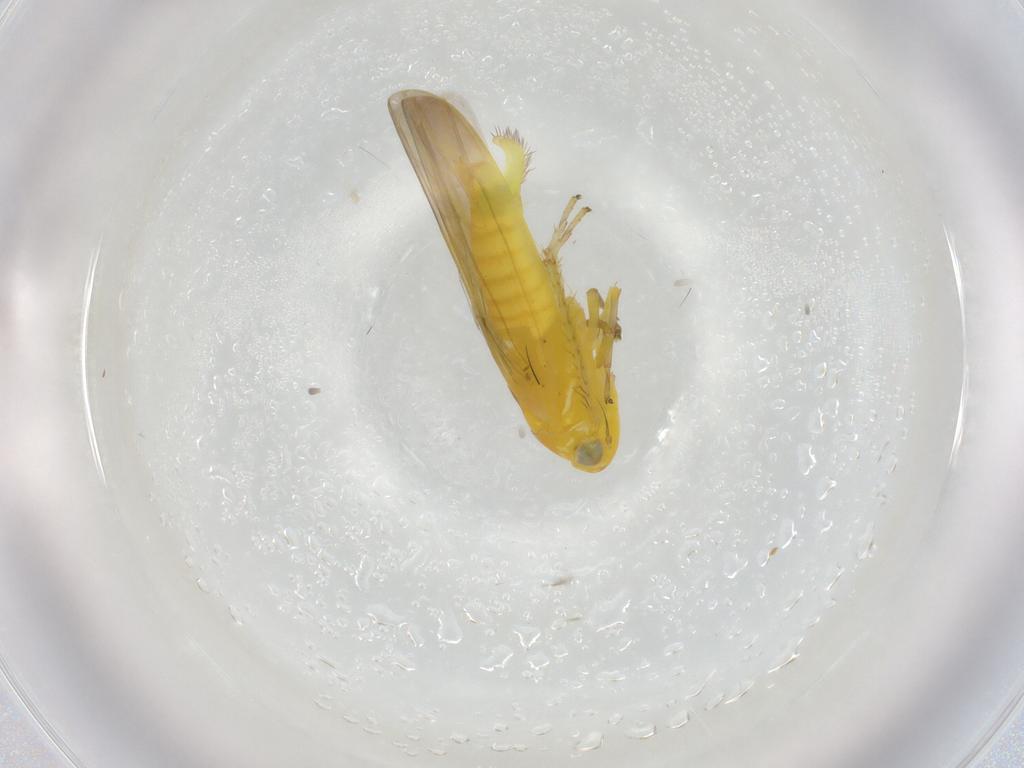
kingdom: Animalia
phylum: Arthropoda
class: Insecta
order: Hemiptera
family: Cicadellidae
